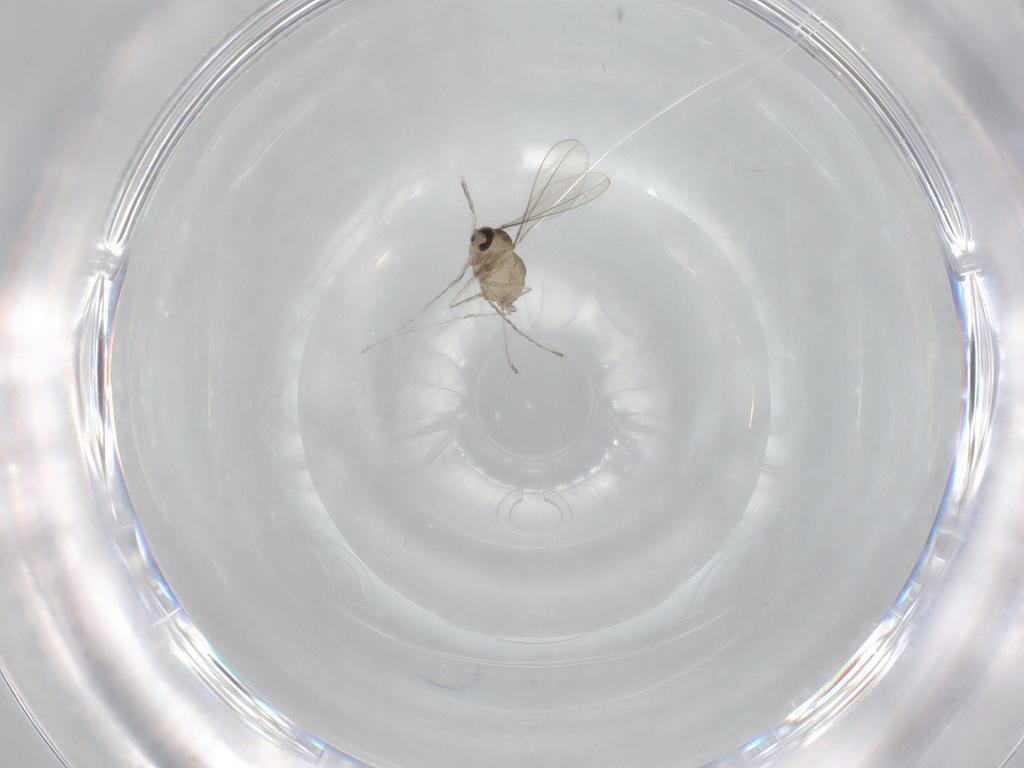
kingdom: Animalia
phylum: Arthropoda
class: Insecta
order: Diptera
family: Cecidomyiidae
